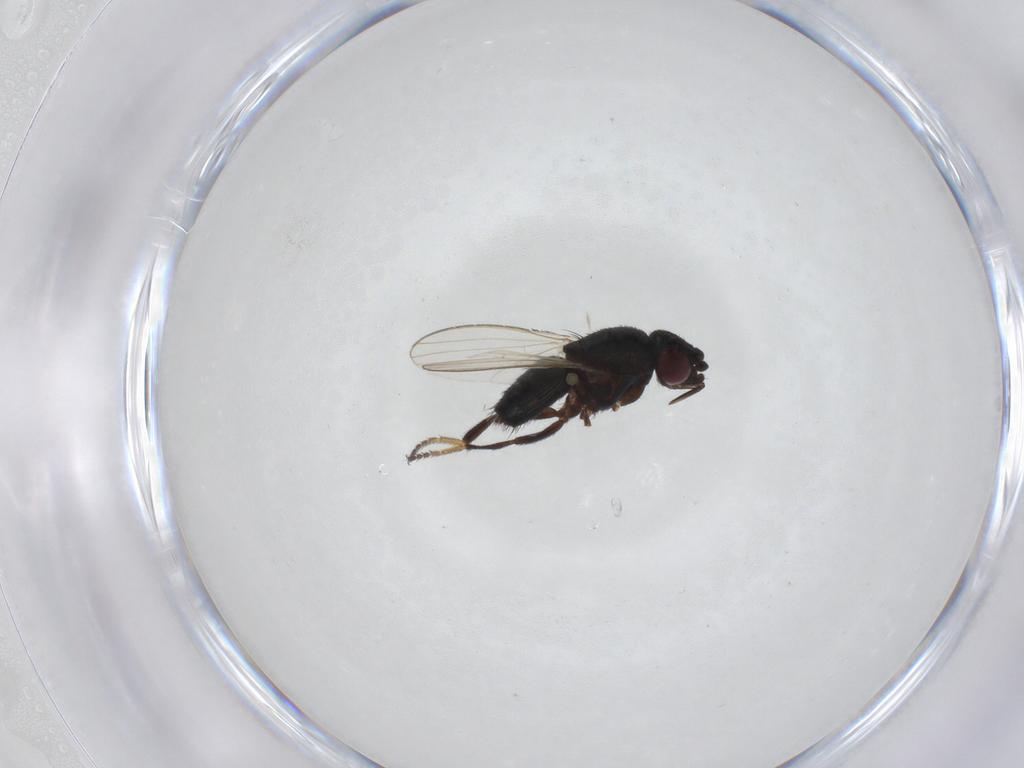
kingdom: Animalia
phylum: Arthropoda
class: Insecta
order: Diptera
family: Milichiidae
